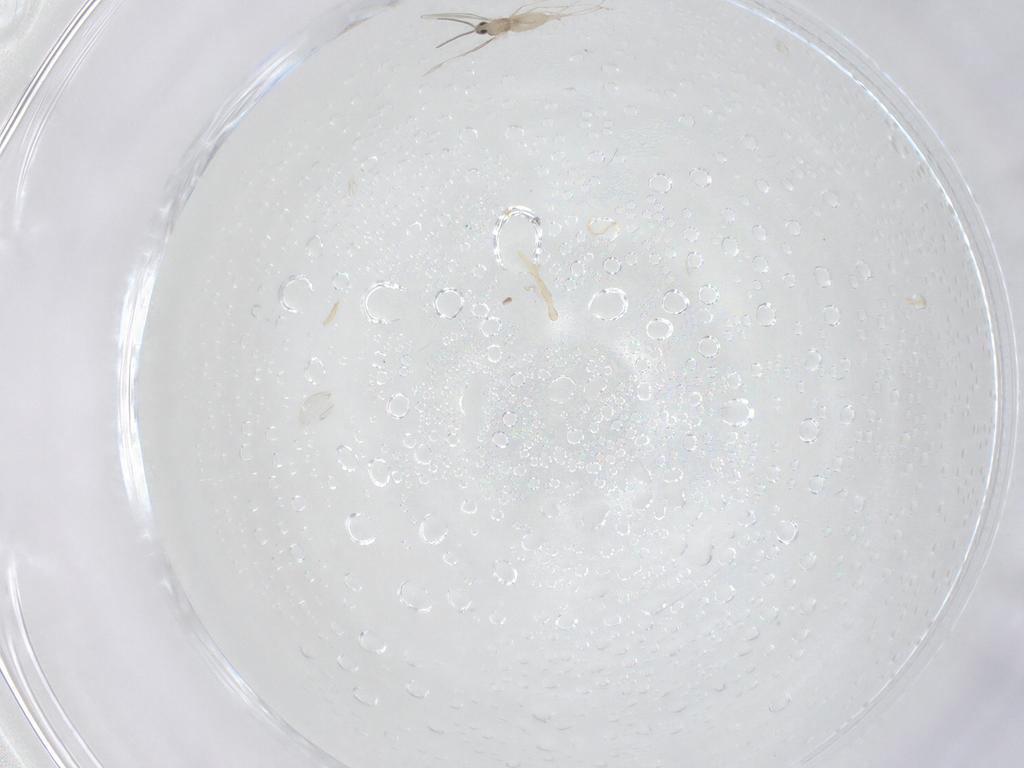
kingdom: Animalia
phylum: Arthropoda
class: Insecta
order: Diptera
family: Cecidomyiidae
